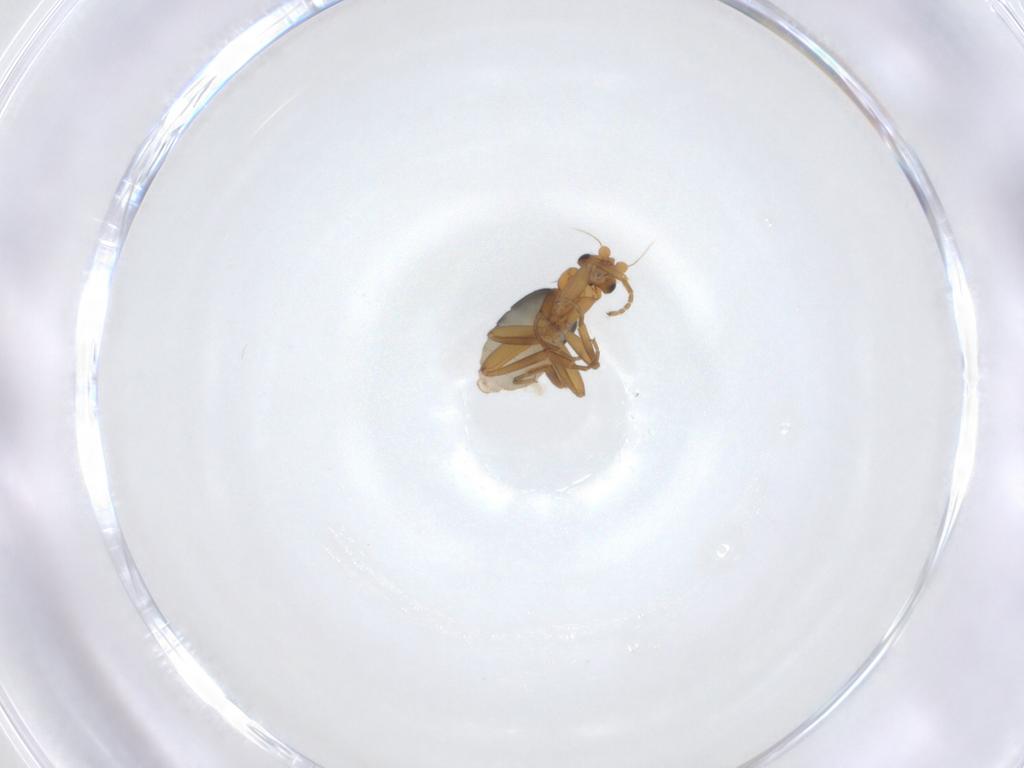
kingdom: Animalia
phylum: Arthropoda
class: Insecta
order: Diptera
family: Phoridae
